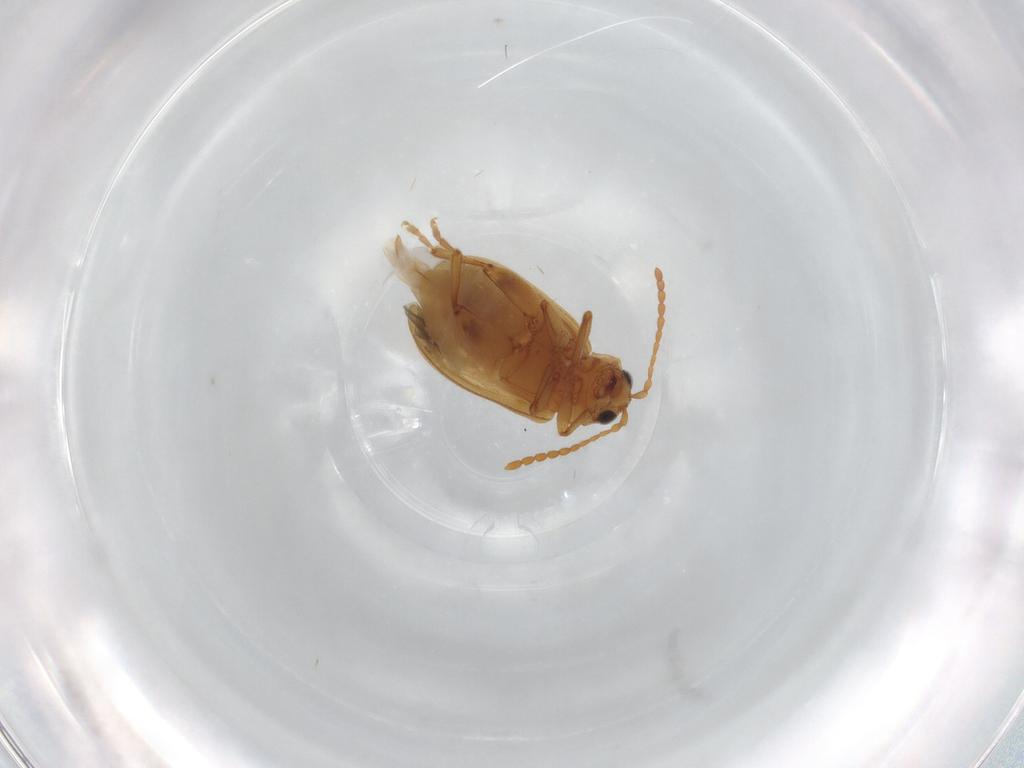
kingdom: Animalia
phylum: Arthropoda
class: Insecta
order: Coleoptera
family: Chrysomelidae
